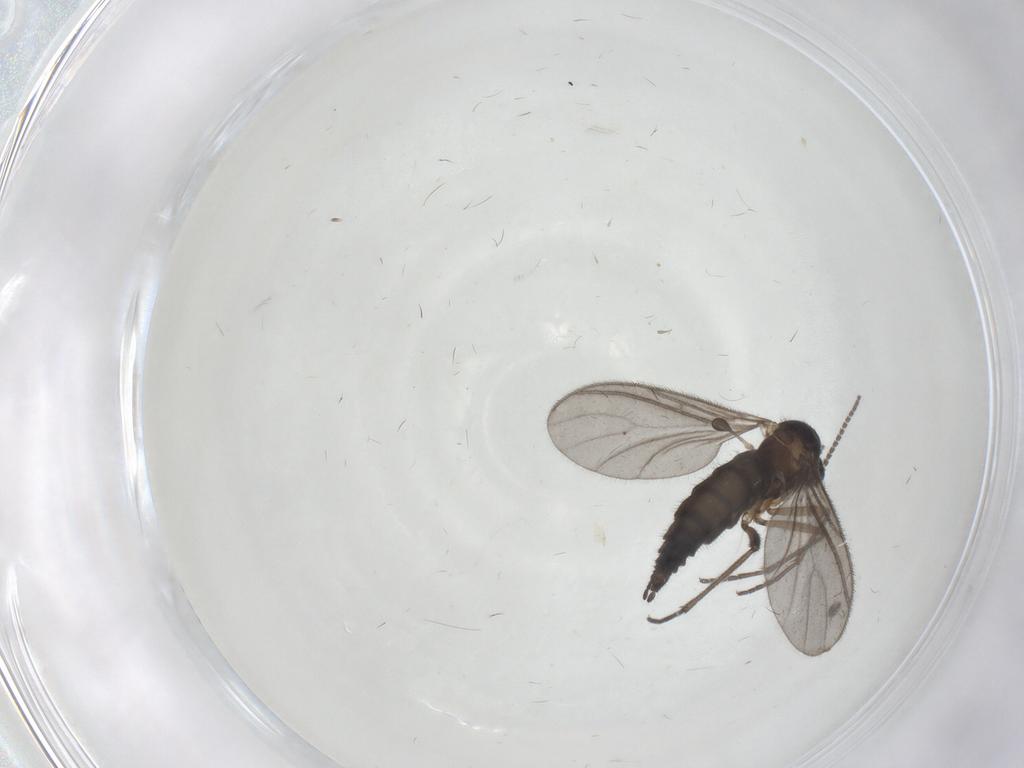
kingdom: Animalia
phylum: Arthropoda
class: Insecta
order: Diptera
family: Sciaridae
